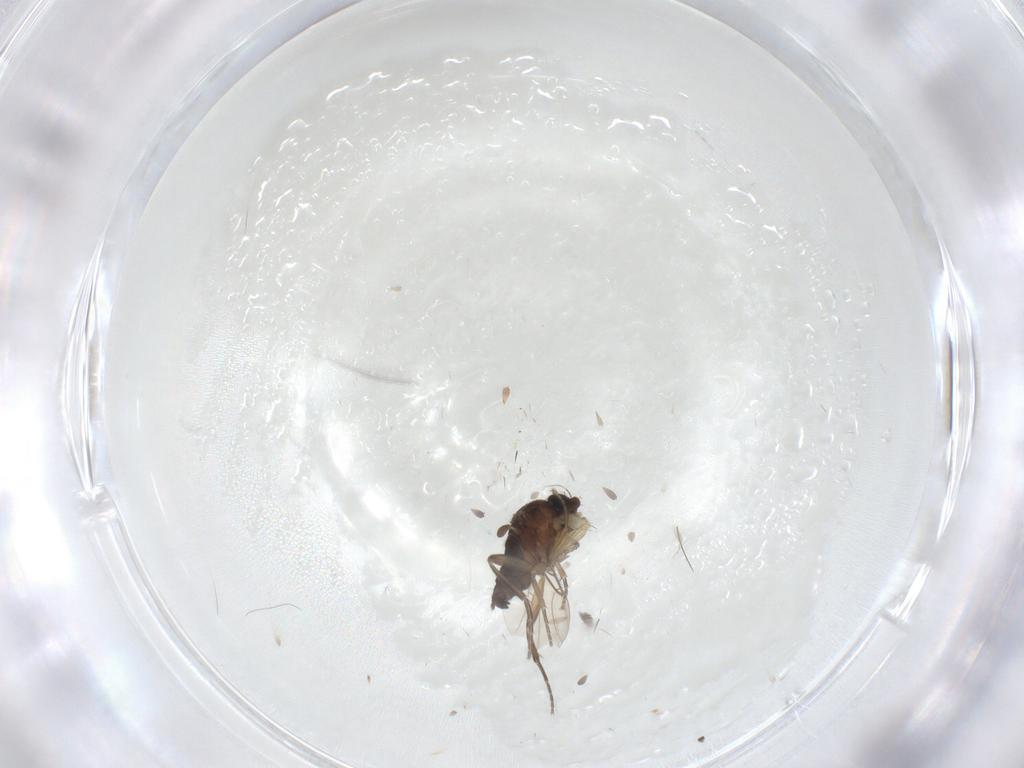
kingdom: Animalia
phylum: Arthropoda
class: Insecta
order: Diptera
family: Phoridae
